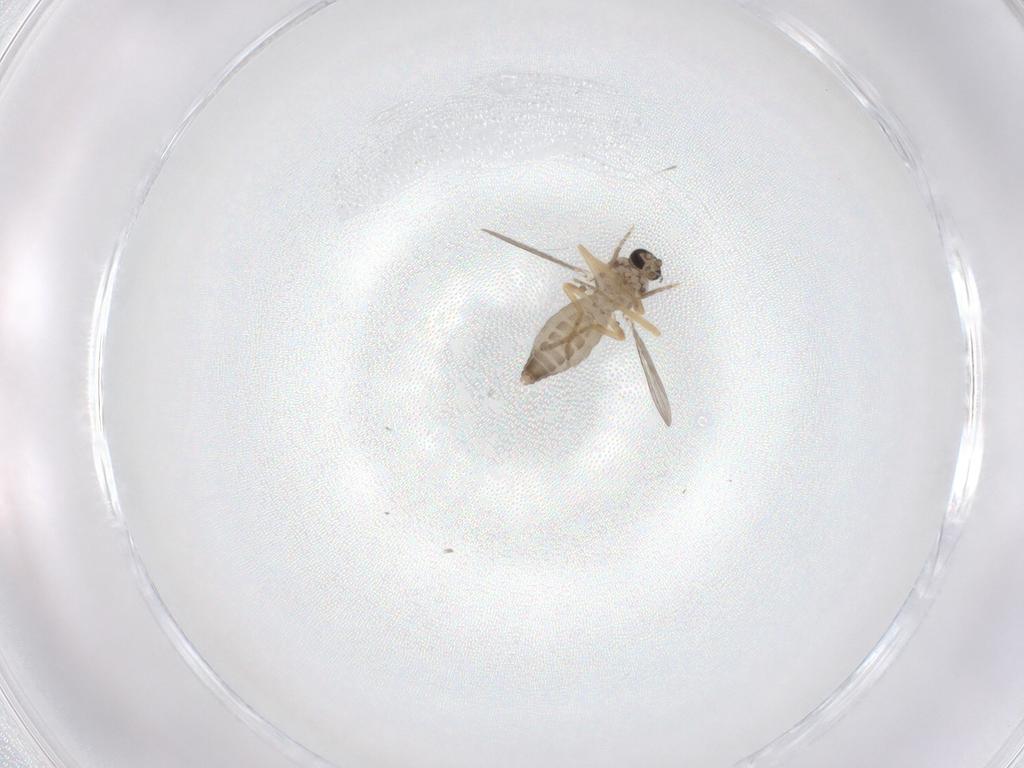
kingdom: Animalia
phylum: Arthropoda
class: Insecta
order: Diptera
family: Ceratopogonidae
